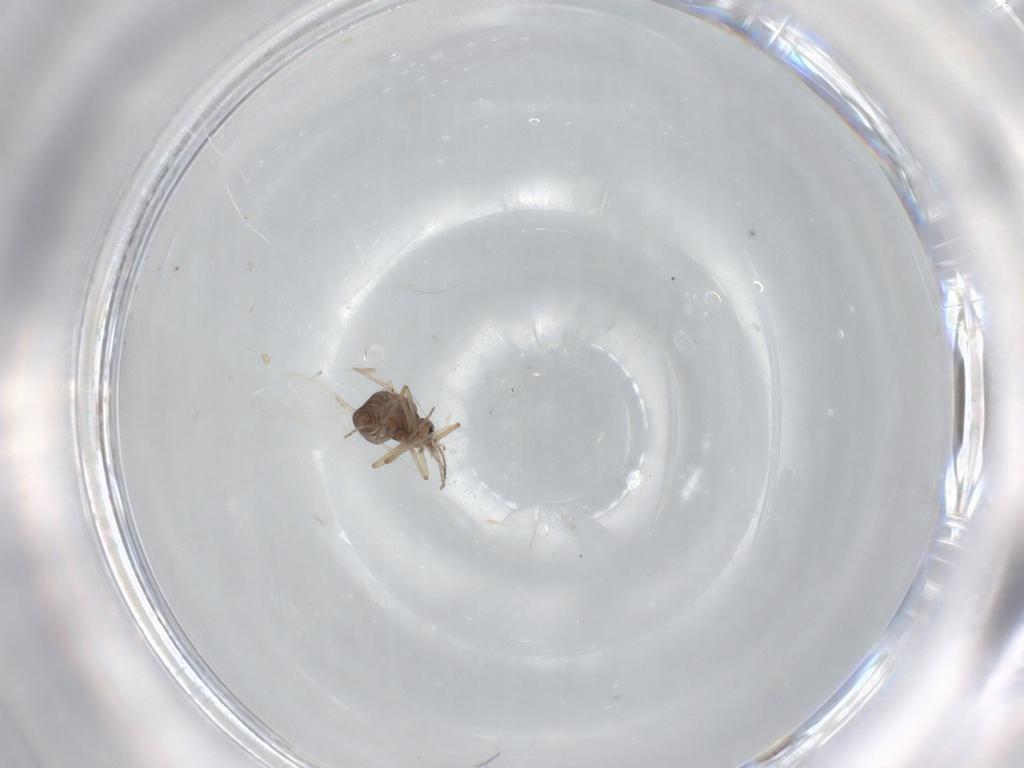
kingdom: Animalia
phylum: Arthropoda
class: Insecta
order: Diptera
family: Ceratopogonidae
